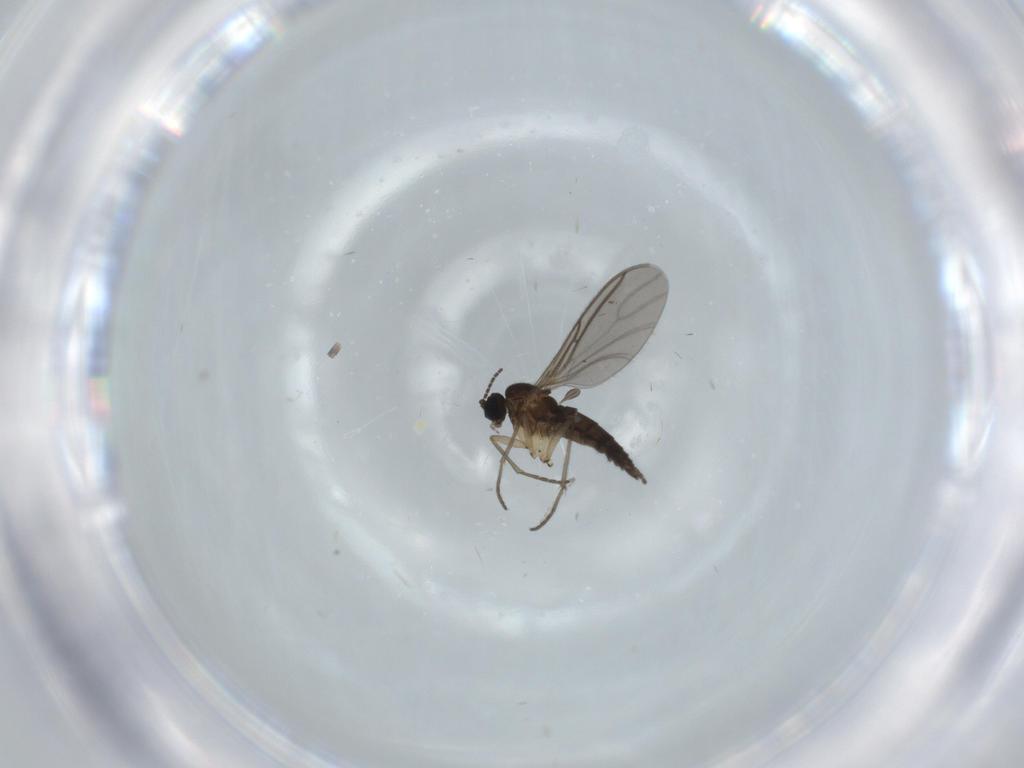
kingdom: Animalia
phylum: Arthropoda
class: Insecta
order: Diptera
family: Sciaridae
